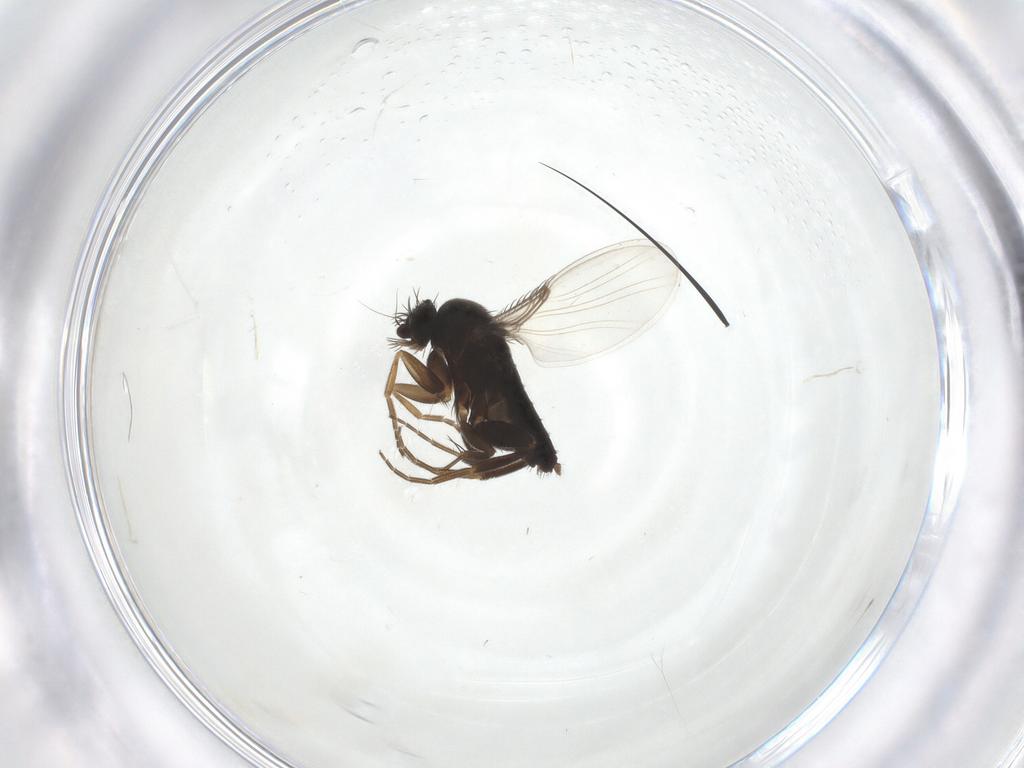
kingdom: Animalia
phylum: Arthropoda
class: Insecta
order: Diptera
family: Phoridae
